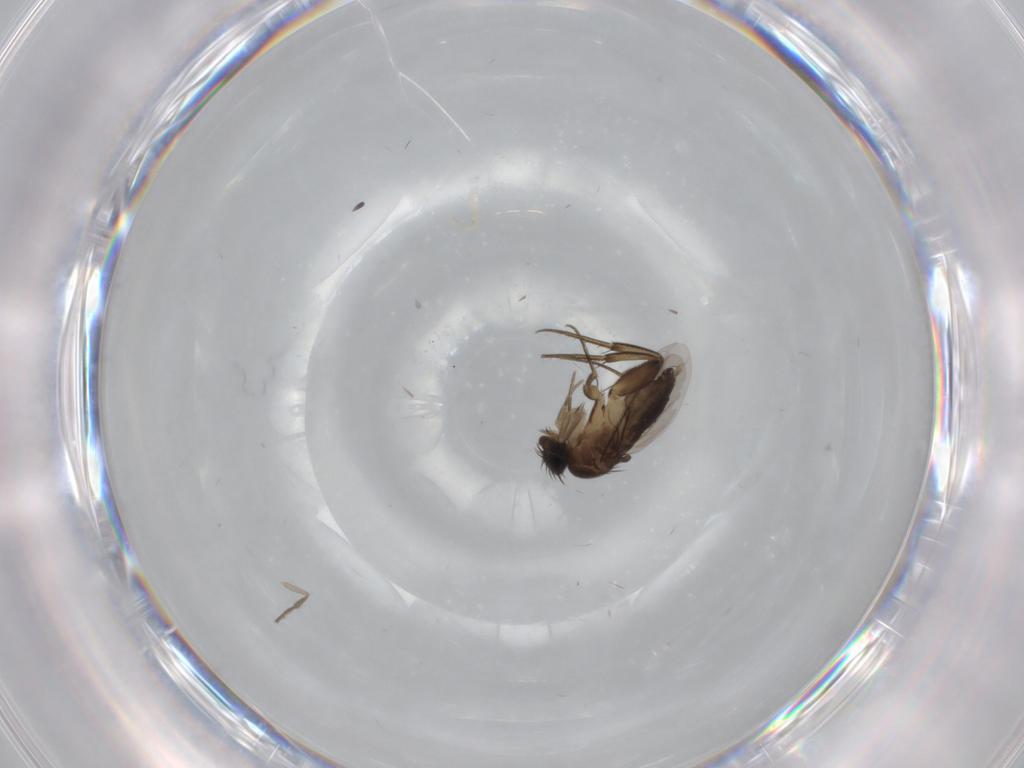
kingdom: Animalia
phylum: Arthropoda
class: Insecta
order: Diptera
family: Phoridae
